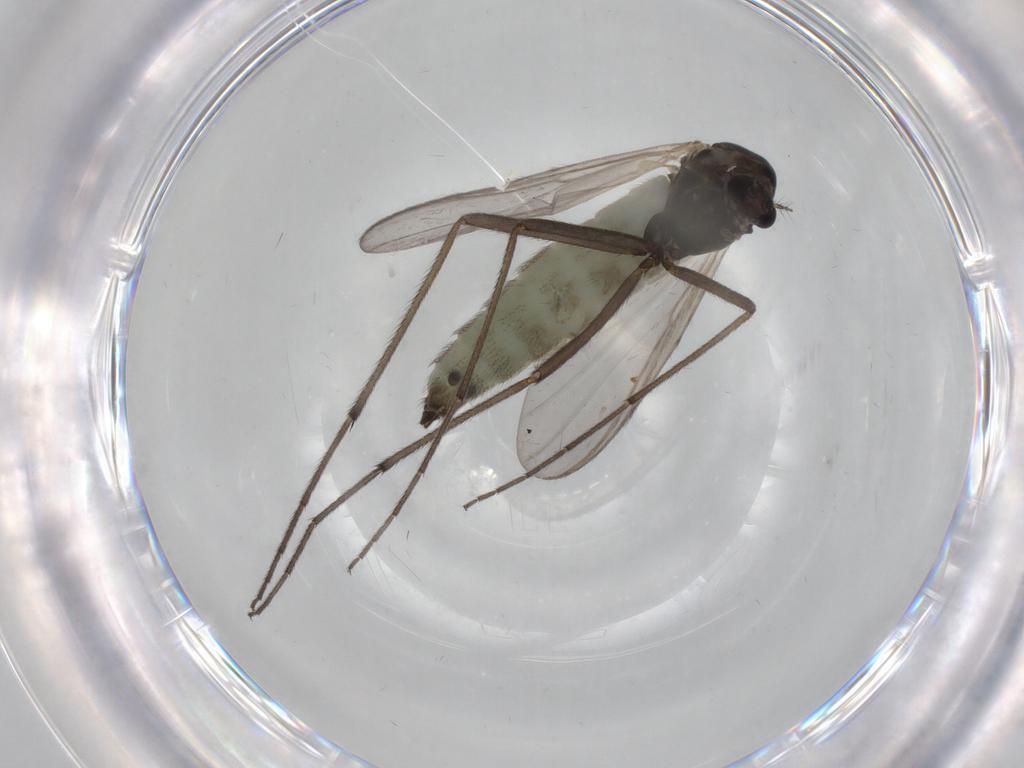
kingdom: Animalia
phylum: Arthropoda
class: Insecta
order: Diptera
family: Chironomidae
